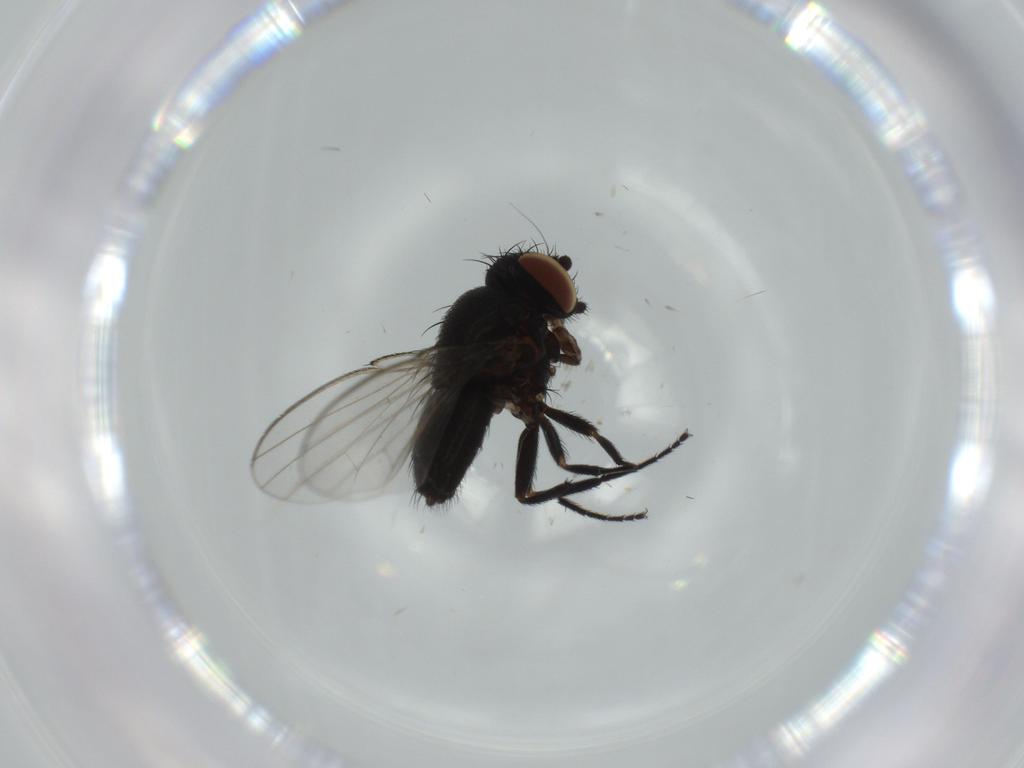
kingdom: Animalia
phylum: Arthropoda
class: Insecta
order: Diptera
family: Milichiidae
